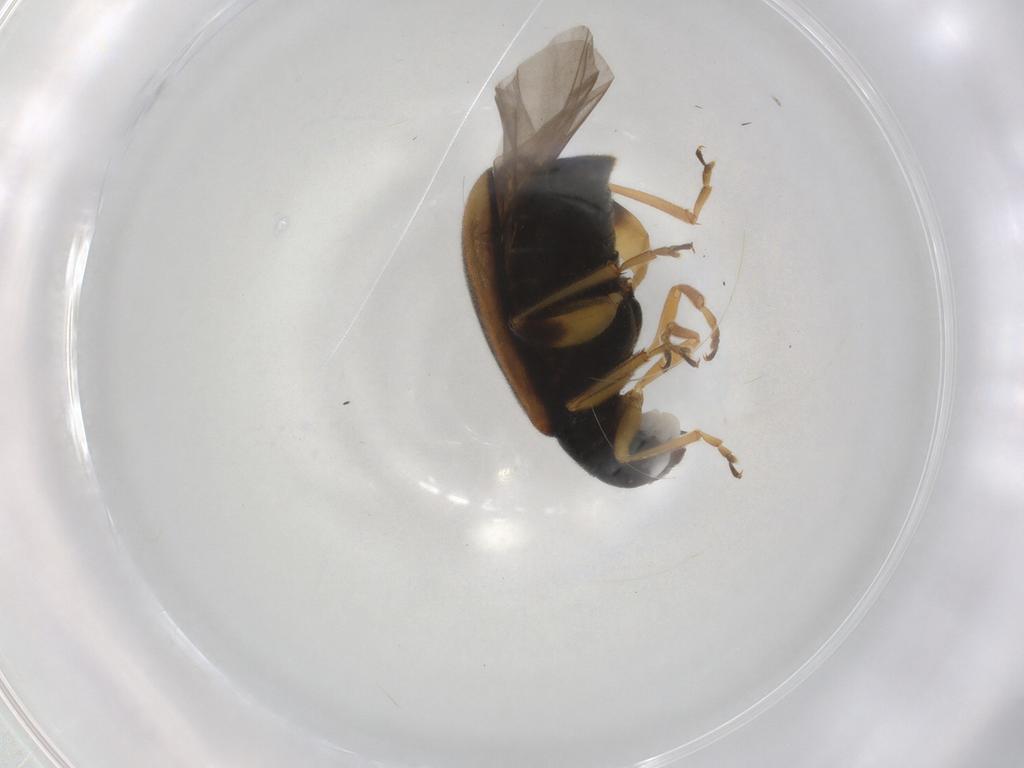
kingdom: Animalia
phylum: Arthropoda
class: Insecta
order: Coleoptera
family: Chrysomelidae
